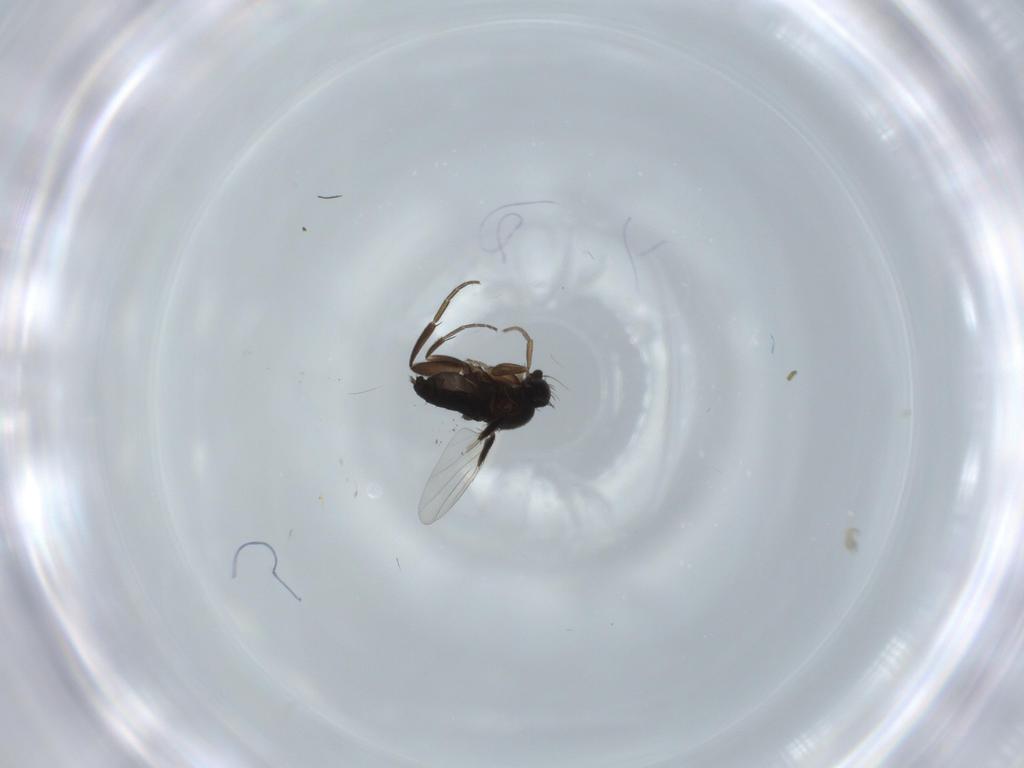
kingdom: Animalia
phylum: Arthropoda
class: Insecta
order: Diptera
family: Phoridae
